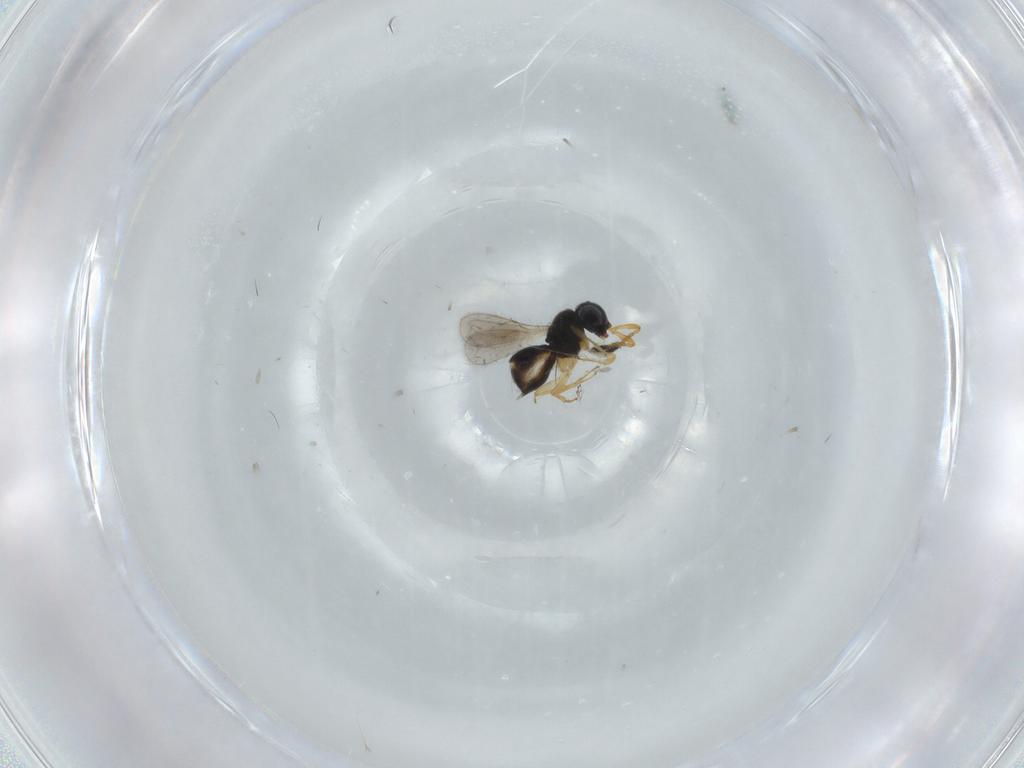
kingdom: Animalia
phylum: Arthropoda
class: Insecta
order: Hymenoptera
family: Scelionidae
